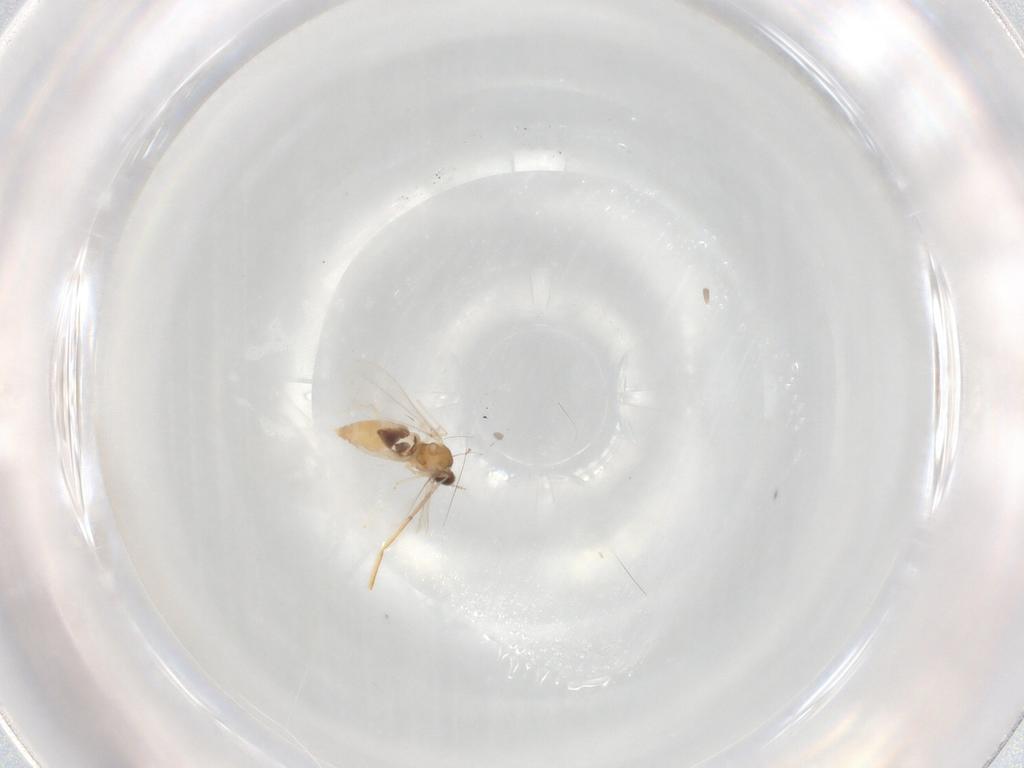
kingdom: Animalia
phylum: Arthropoda
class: Insecta
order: Diptera
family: Cecidomyiidae
